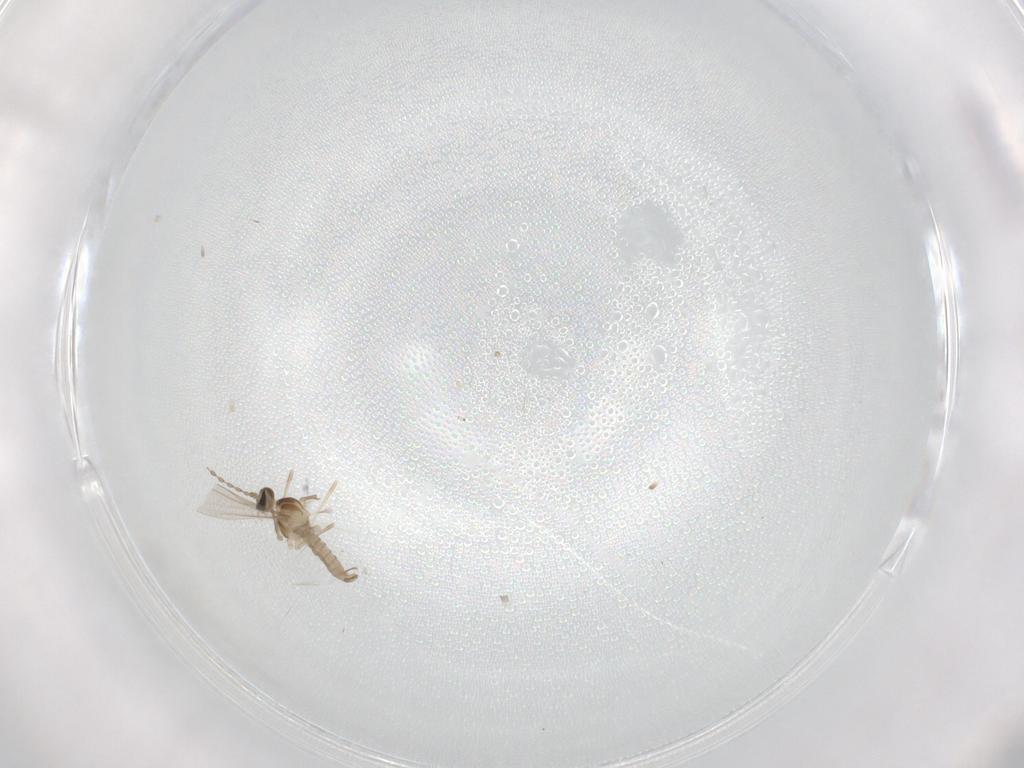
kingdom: Animalia
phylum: Arthropoda
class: Insecta
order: Diptera
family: Cecidomyiidae
